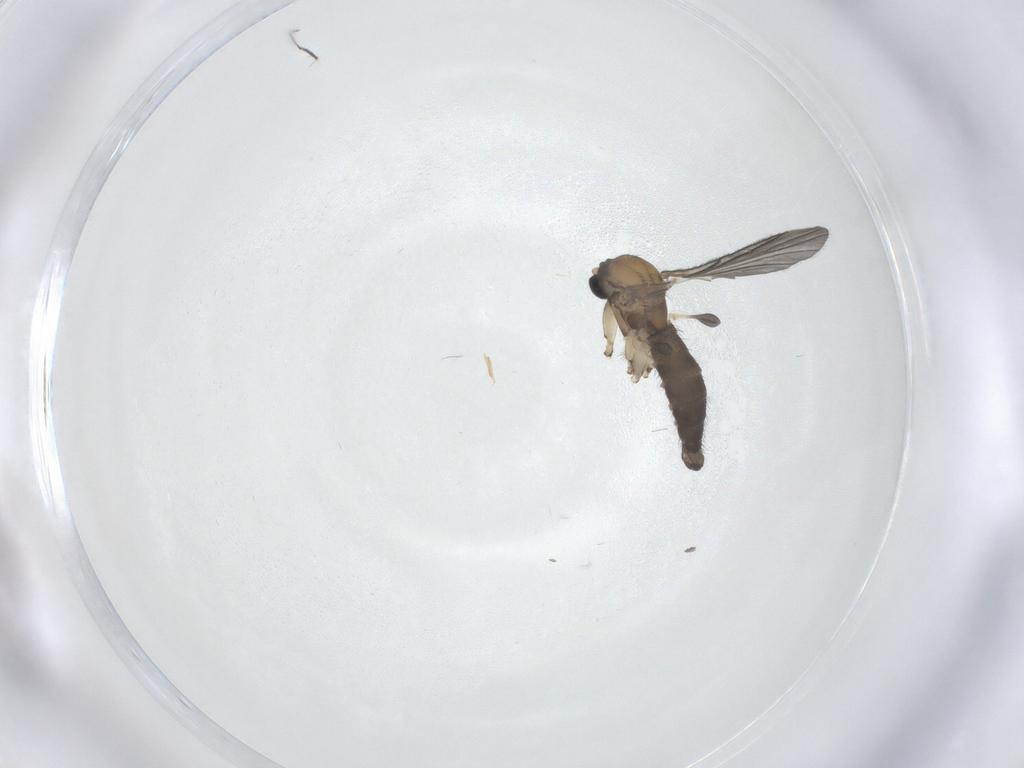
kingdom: Animalia
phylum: Arthropoda
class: Insecta
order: Diptera
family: Sciaridae
